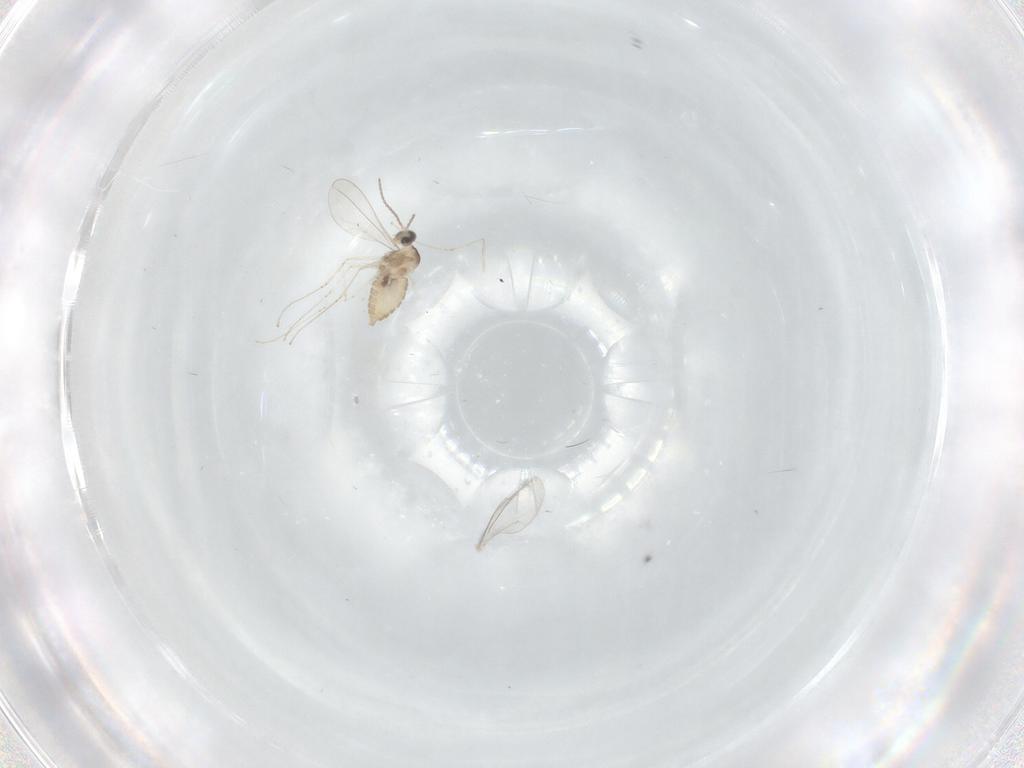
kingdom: Animalia
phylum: Arthropoda
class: Insecta
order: Diptera
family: Cecidomyiidae
